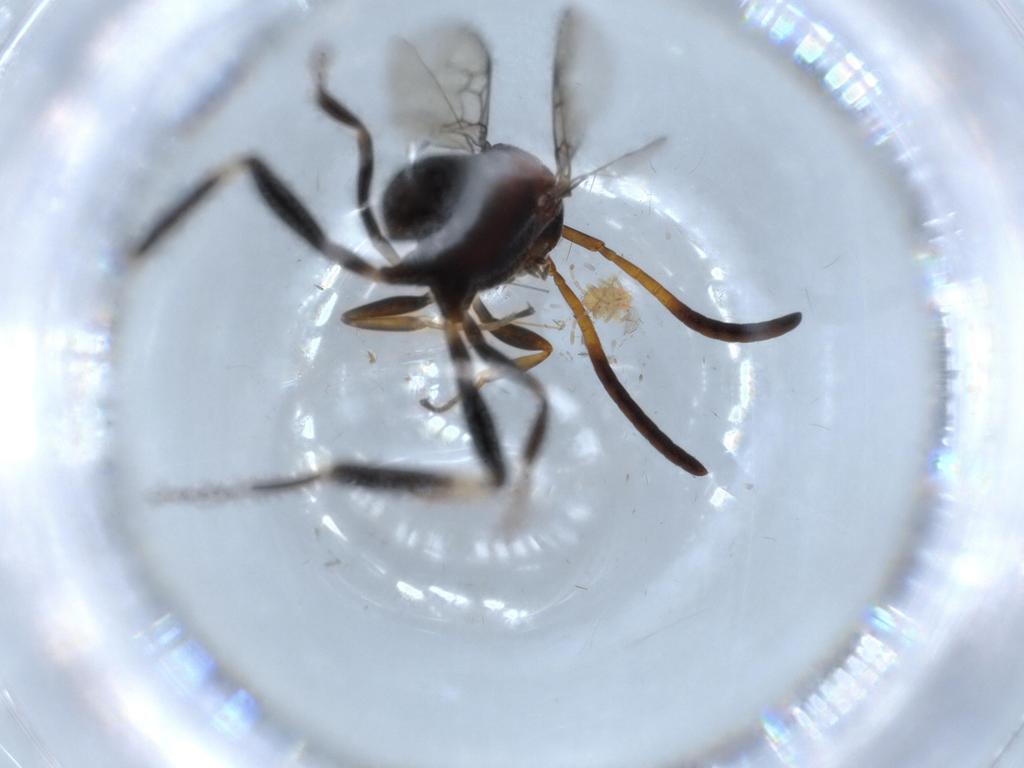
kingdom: Animalia
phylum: Arthropoda
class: Insecta
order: Hymenoptera
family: Evaniidae
